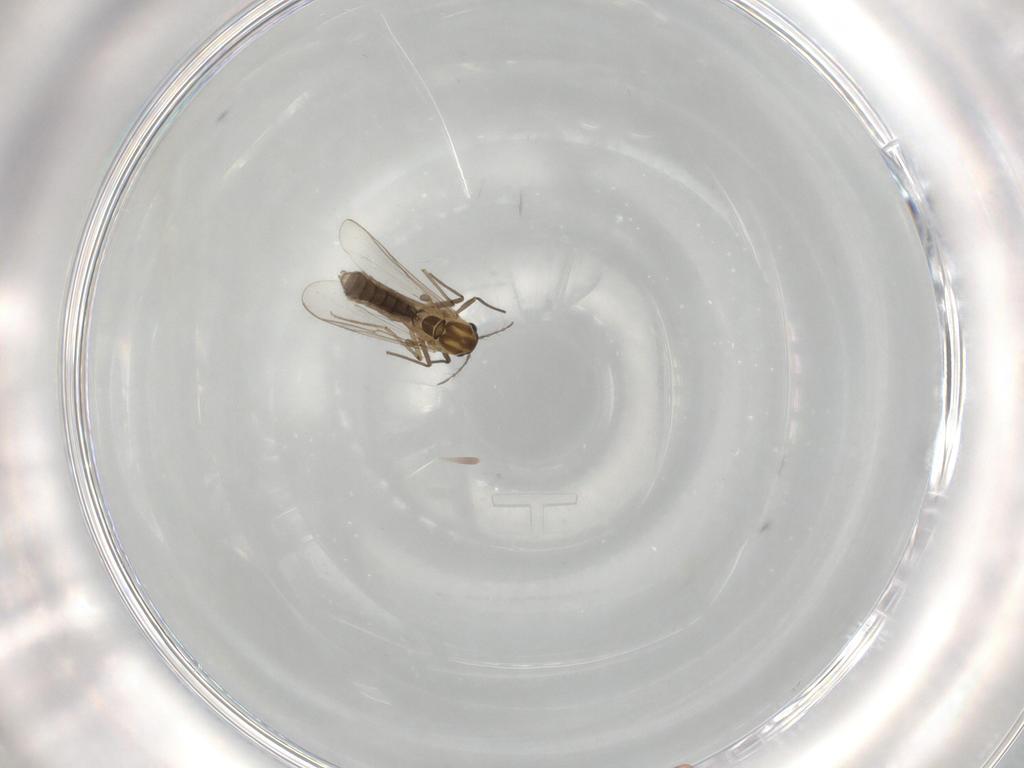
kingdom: Animalia
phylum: Arthropoda
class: Insecta
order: Diptera
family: Chironomidae
